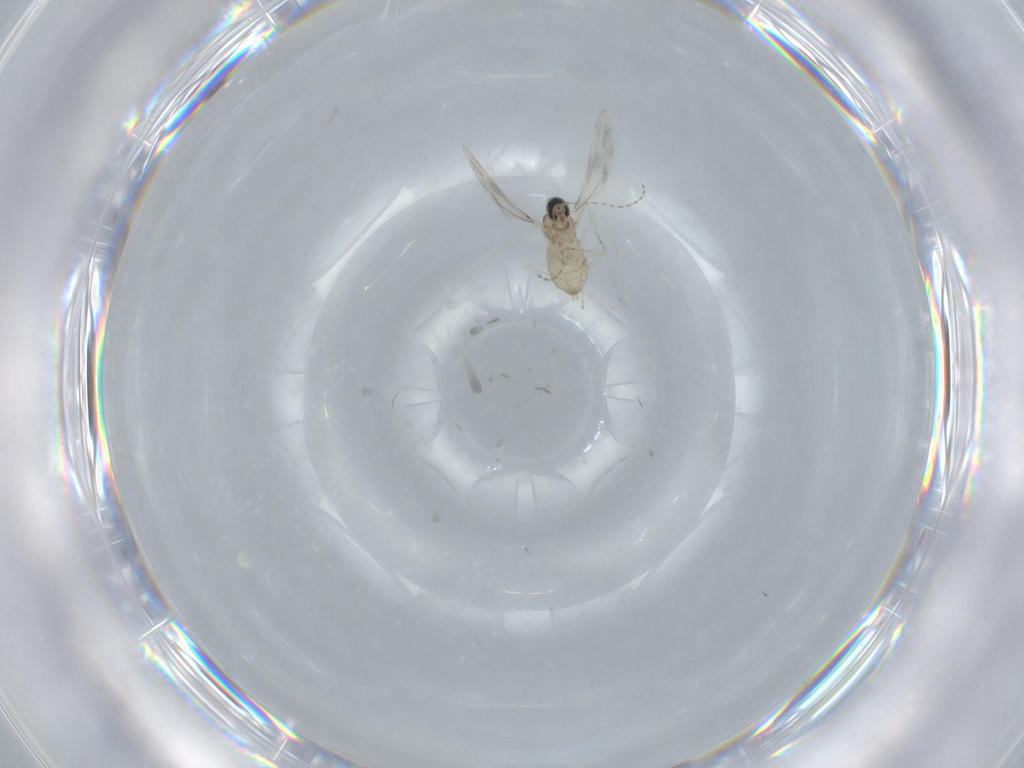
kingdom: Animalia
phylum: Arthropoda
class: Insecta
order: Diptera
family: Cecidomyiidae
